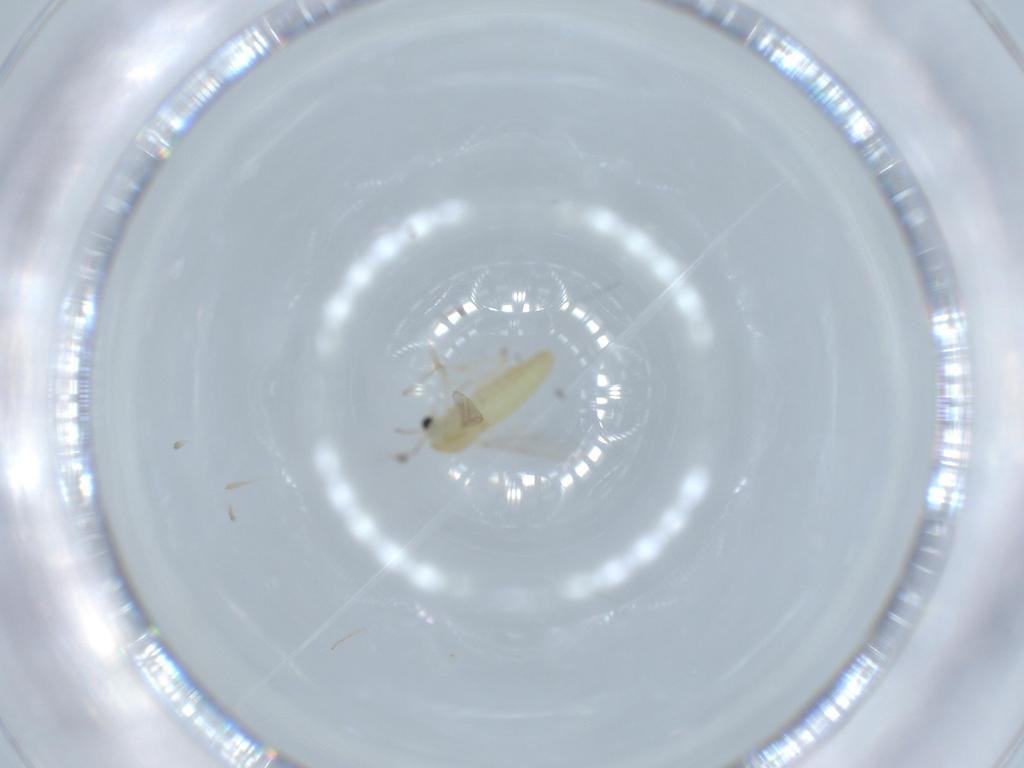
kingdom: Animalia
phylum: Arthropoda
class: Insecta
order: Diptera
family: Chironomidae
